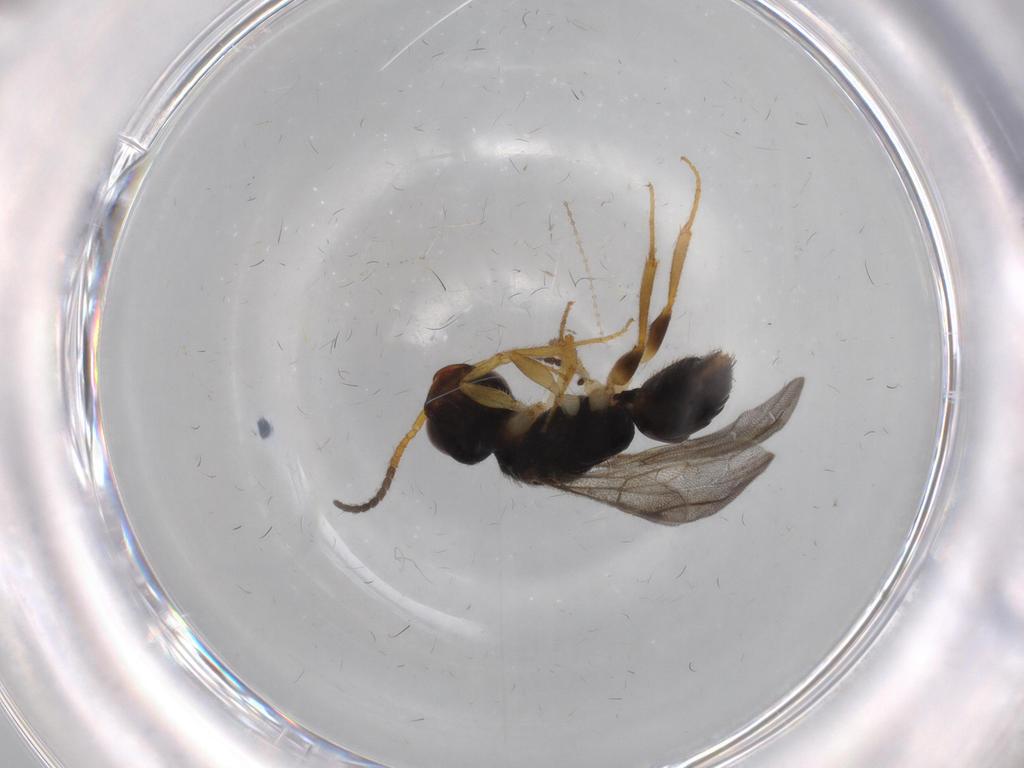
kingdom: Animalia
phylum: Arthropoda
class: Insecta
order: Hymenoptera
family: Bethylidae
